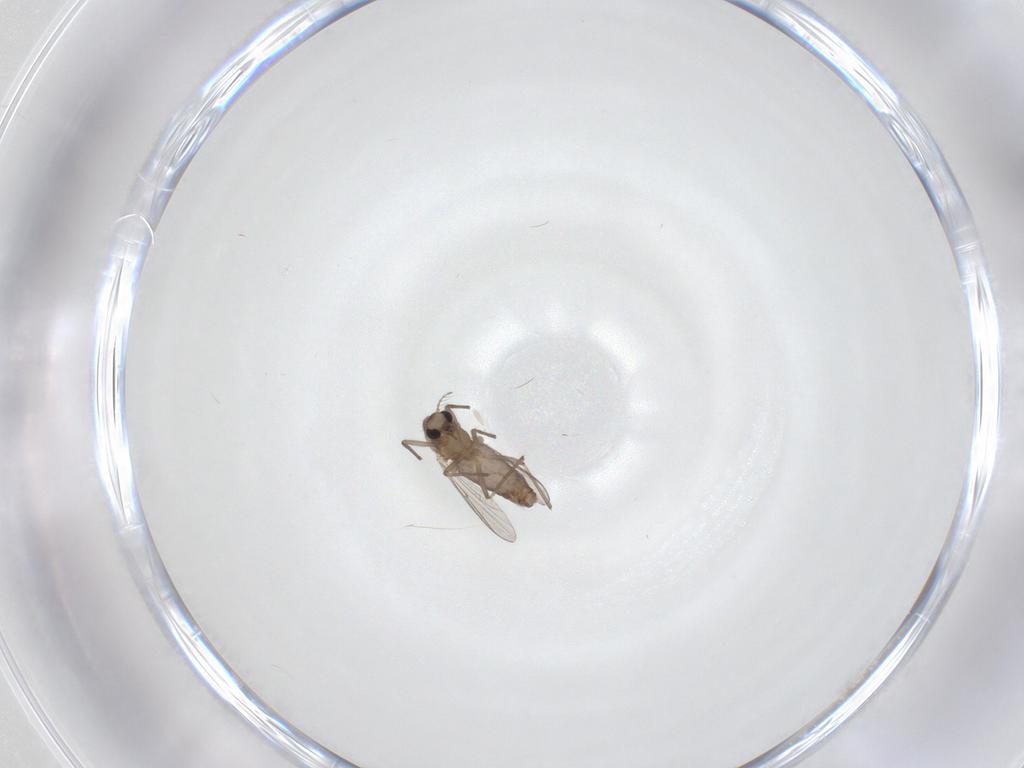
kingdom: Animalia
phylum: Arthropoda
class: Insecta
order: Diptera
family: Chironomidae
